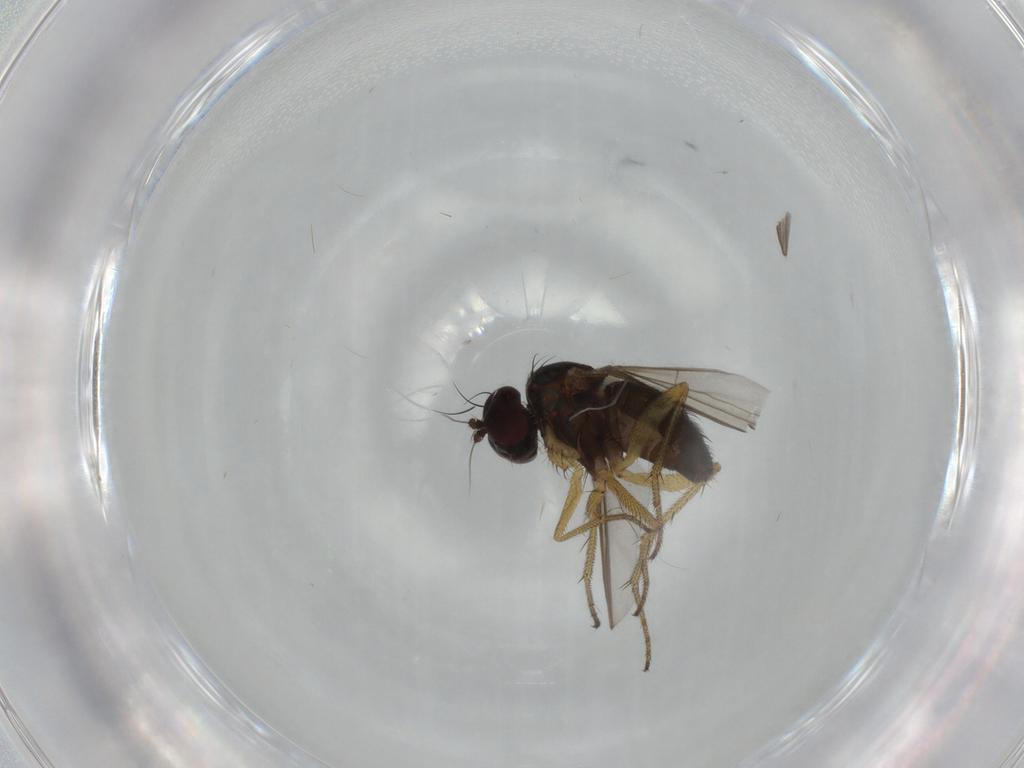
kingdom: Animalia
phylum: Arthropoda
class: Insecta
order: Diptera
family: Dolichopodidae
